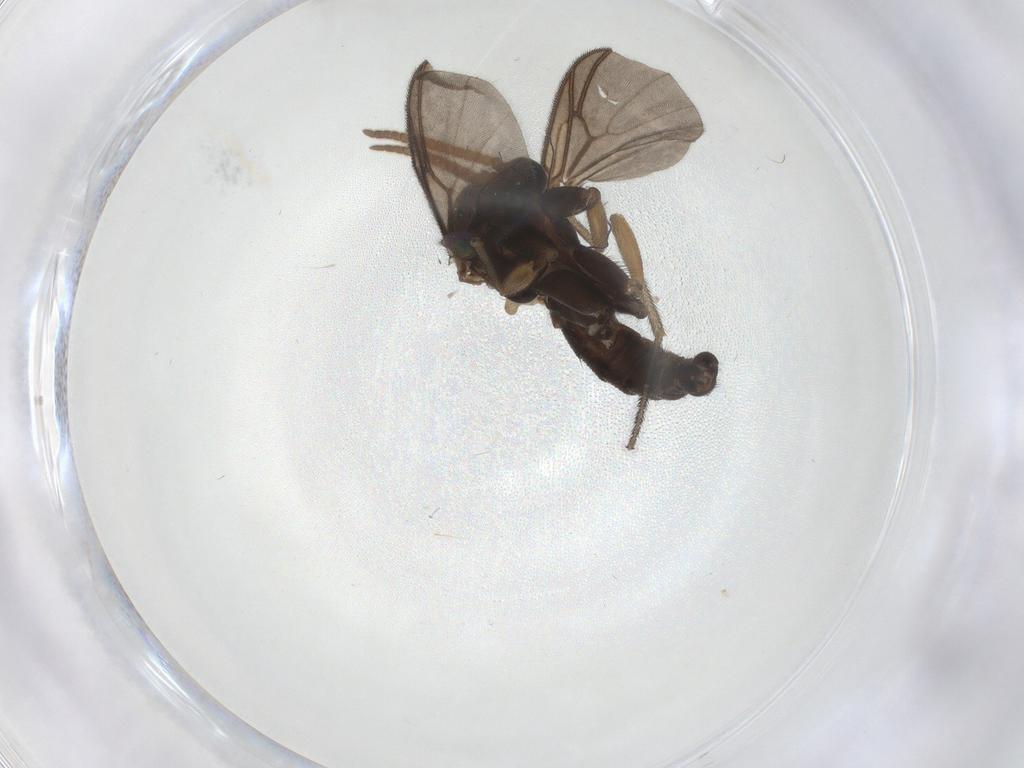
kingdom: Animalia
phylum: Arthropoda
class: Insecta
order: Diptera
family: Mycetophilidae
